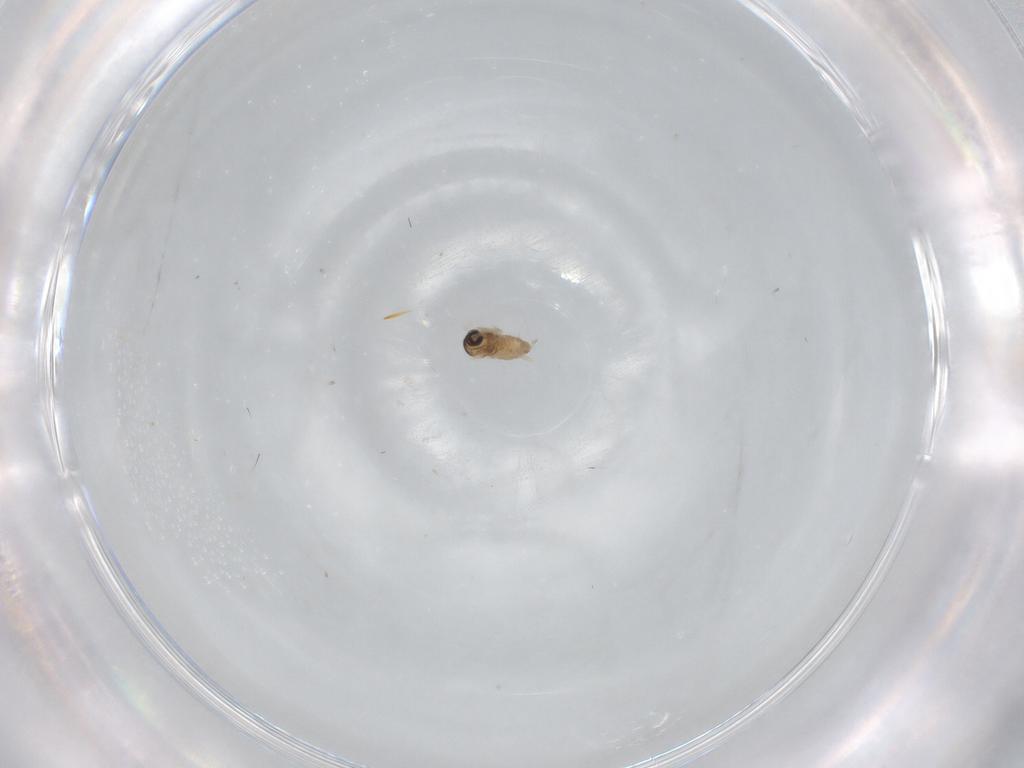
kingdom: Animalia
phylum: Arthropoda
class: Insecta
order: Diptera
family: Cecidomyiidae
